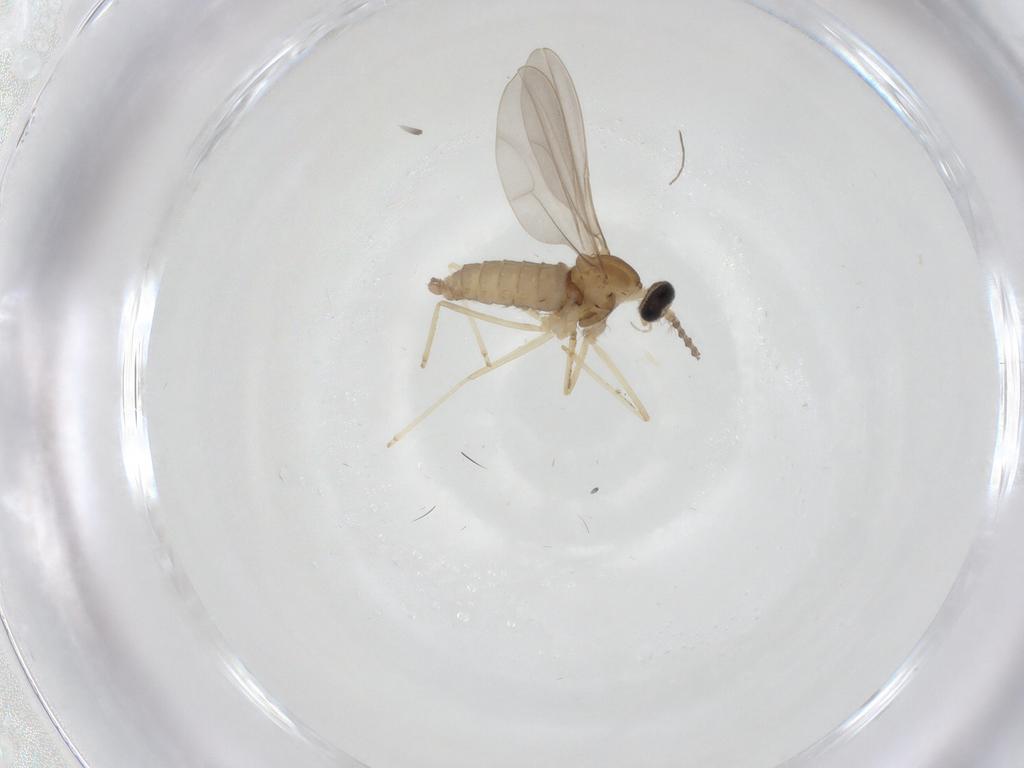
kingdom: Animalia
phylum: Arthropoda
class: Insecta
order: Diptera
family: Cecidomyiidae
